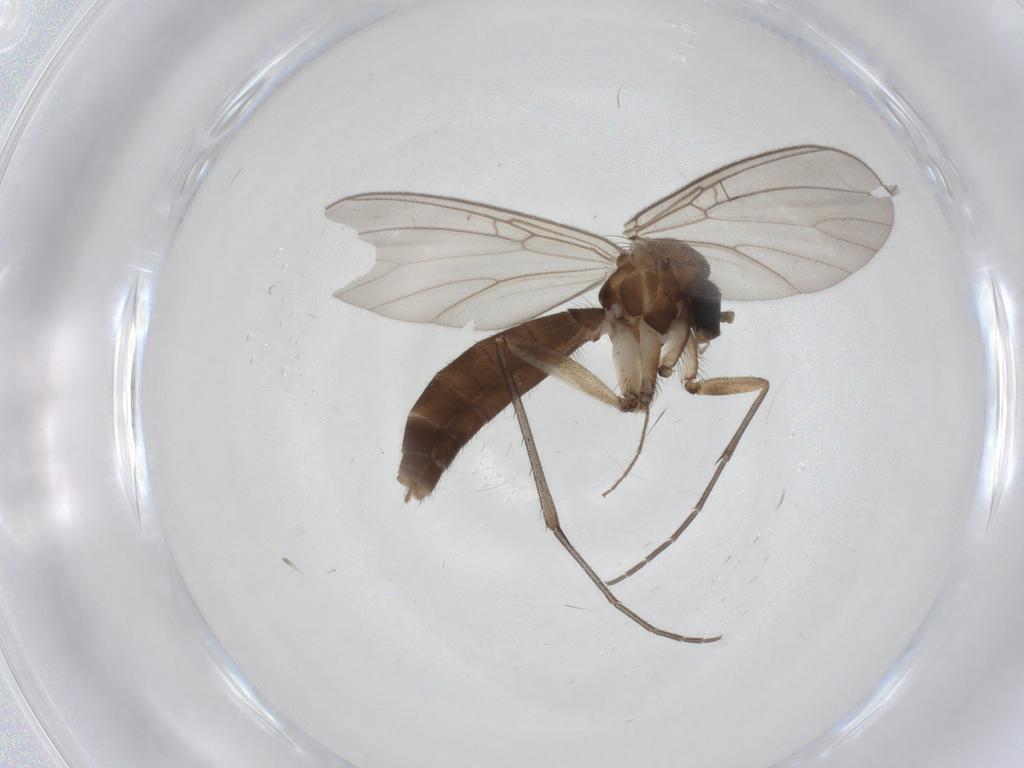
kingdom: Animalia
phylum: Arthropoda
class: Insecta
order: Diptera
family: Mycetophilidae
